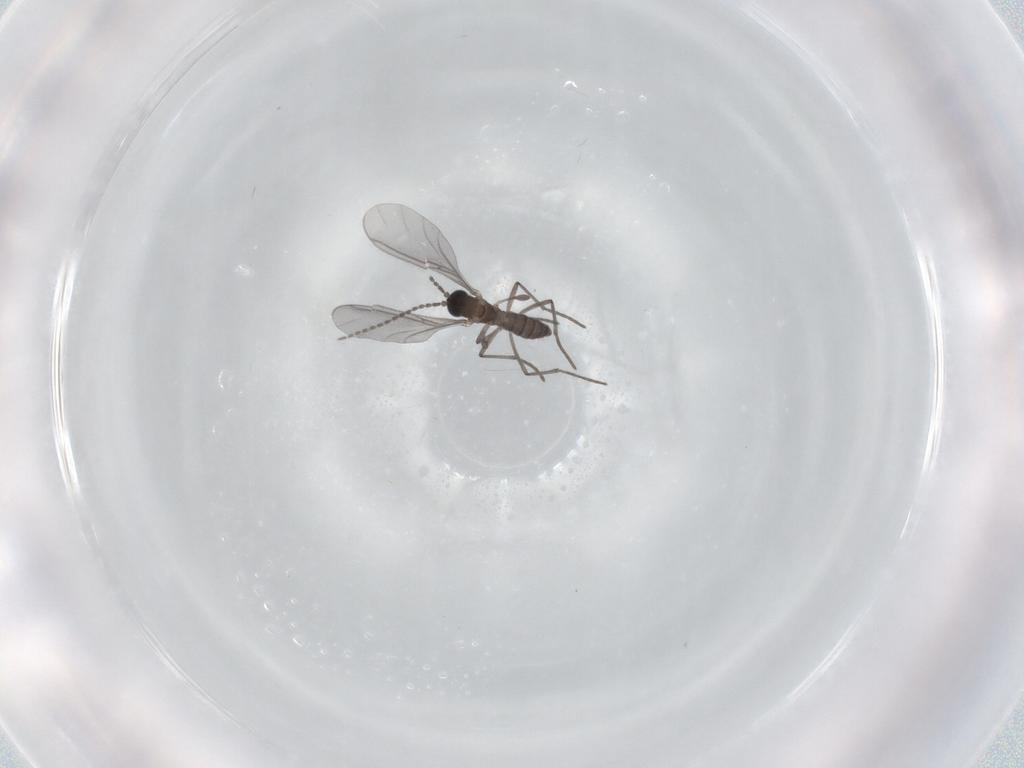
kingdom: Animalia
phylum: Arthropoda
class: Insecta
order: Diptera
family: Sciaridae
